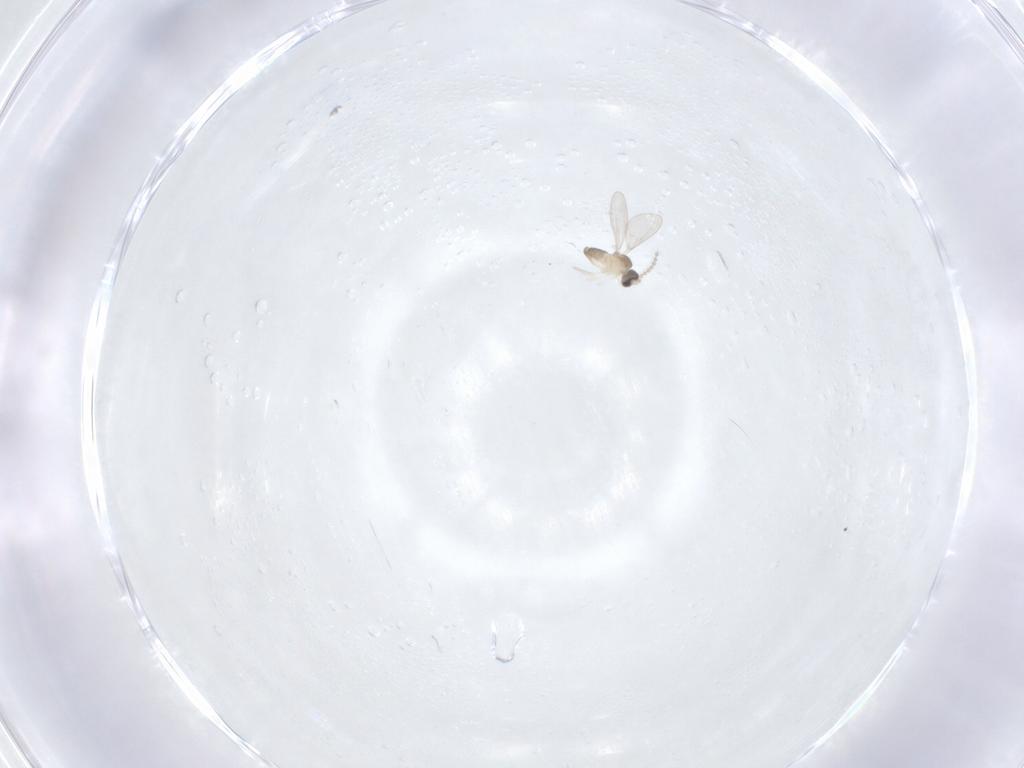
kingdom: Animalia
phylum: Arthropoda
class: Insecta
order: Diptera
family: Cecidomyiidae
